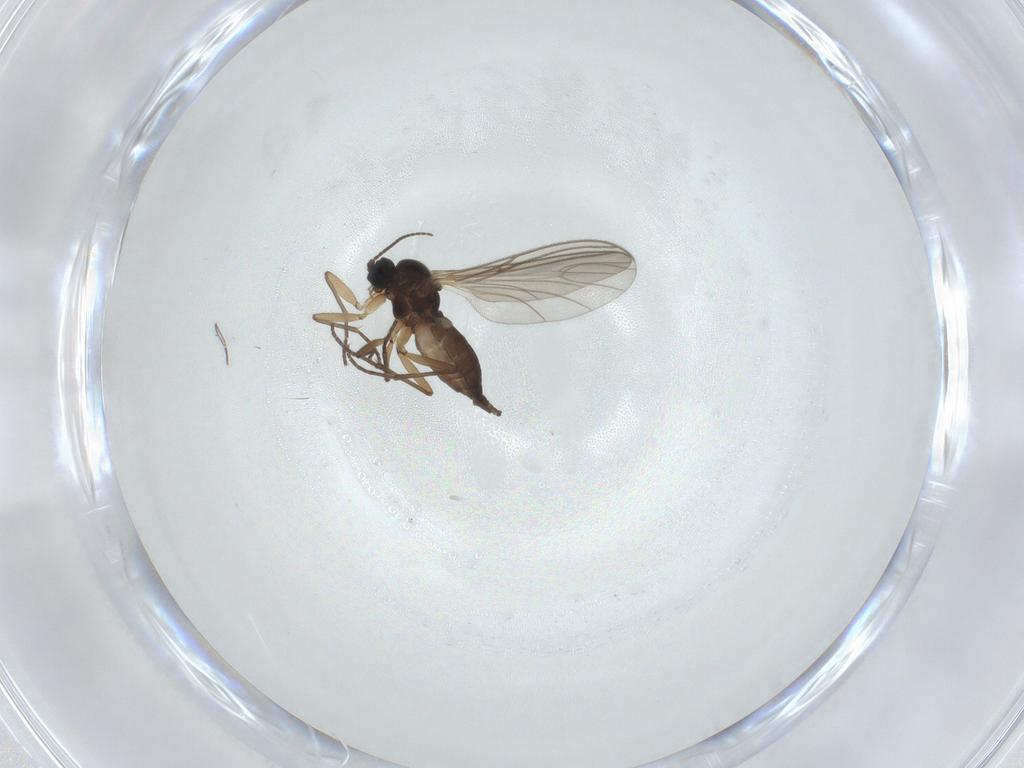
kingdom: Animalia
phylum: Arthropoda
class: Insecta
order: Diptera
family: Sciaridae
